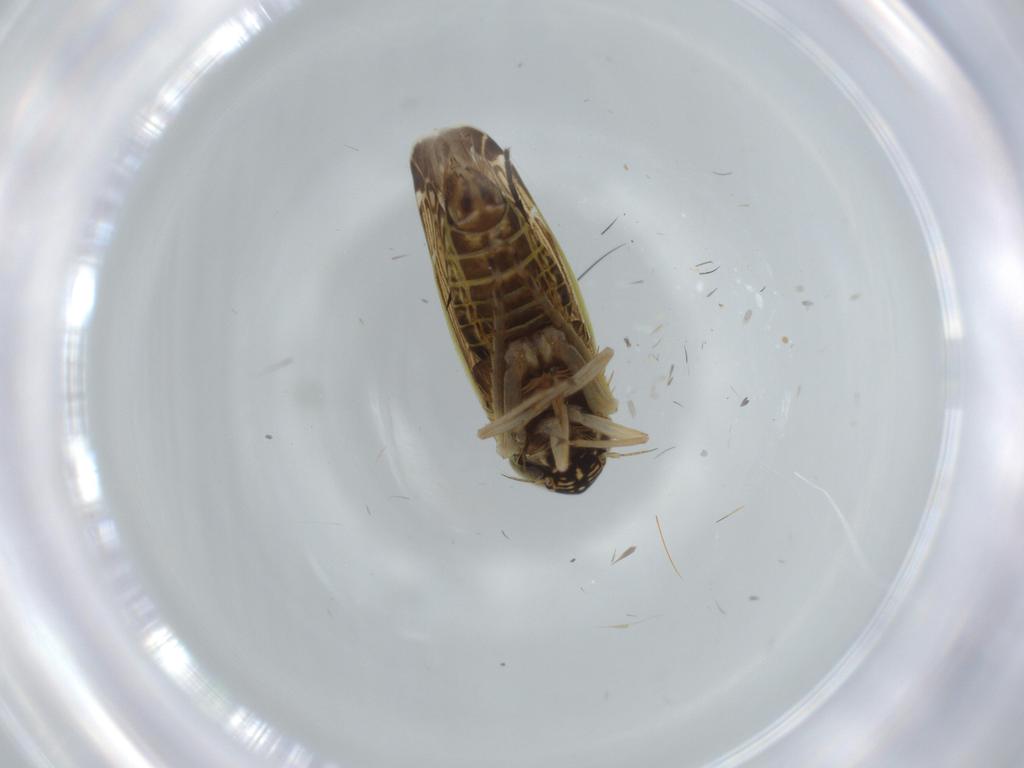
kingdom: Animalia
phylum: Arthropoda
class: Insecta
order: Hemiptera
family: Cicadellidae
